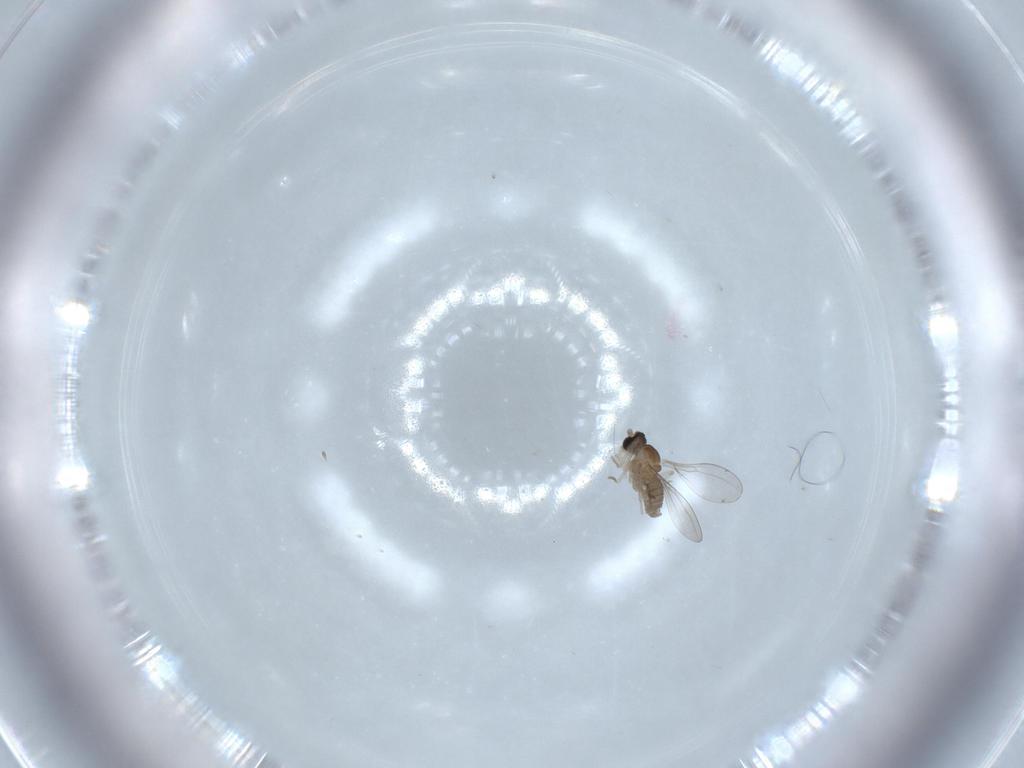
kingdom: Animalia
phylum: Arthropoda
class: Insecta
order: Diptera
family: Cecidomyiidae
